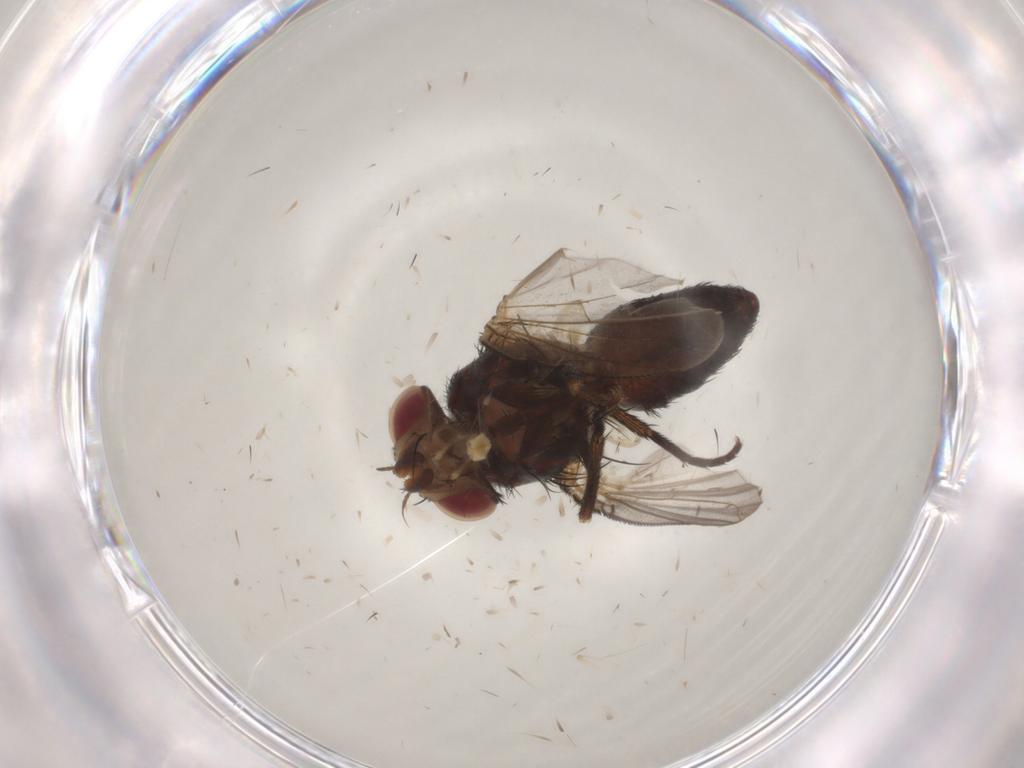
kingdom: Animalia
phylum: Arthropoda
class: Insecta
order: Diptera
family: Tachinidae
